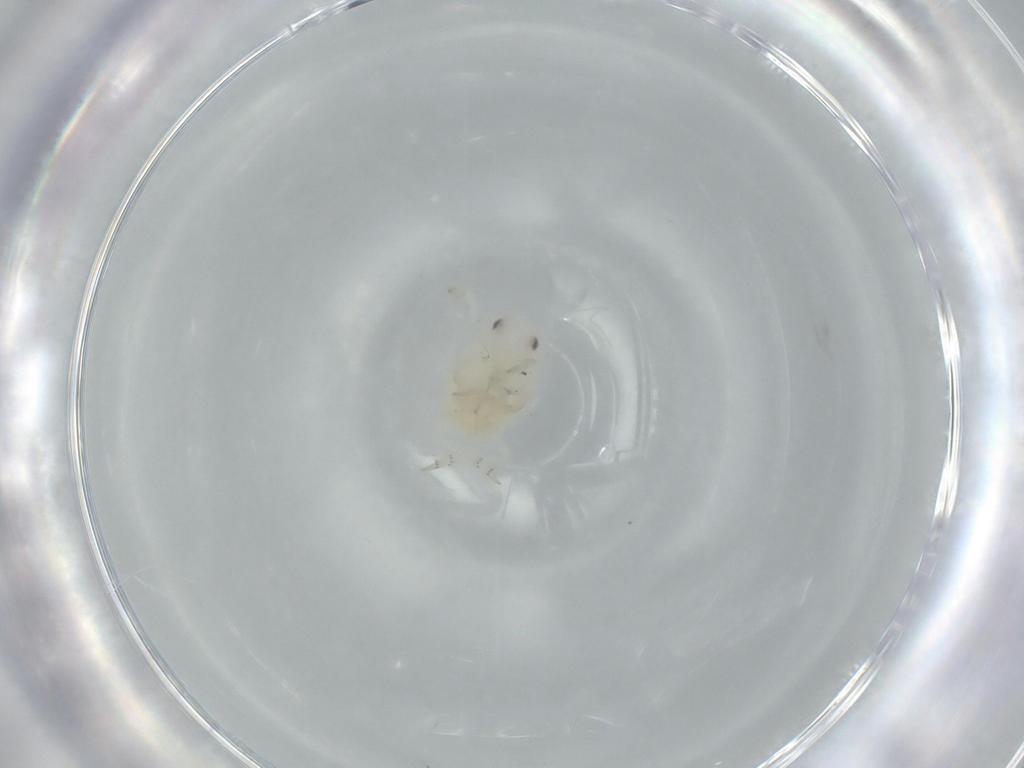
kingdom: Animalia
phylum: Arthropoda
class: Insecta
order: Hemiptera
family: Flatidae
